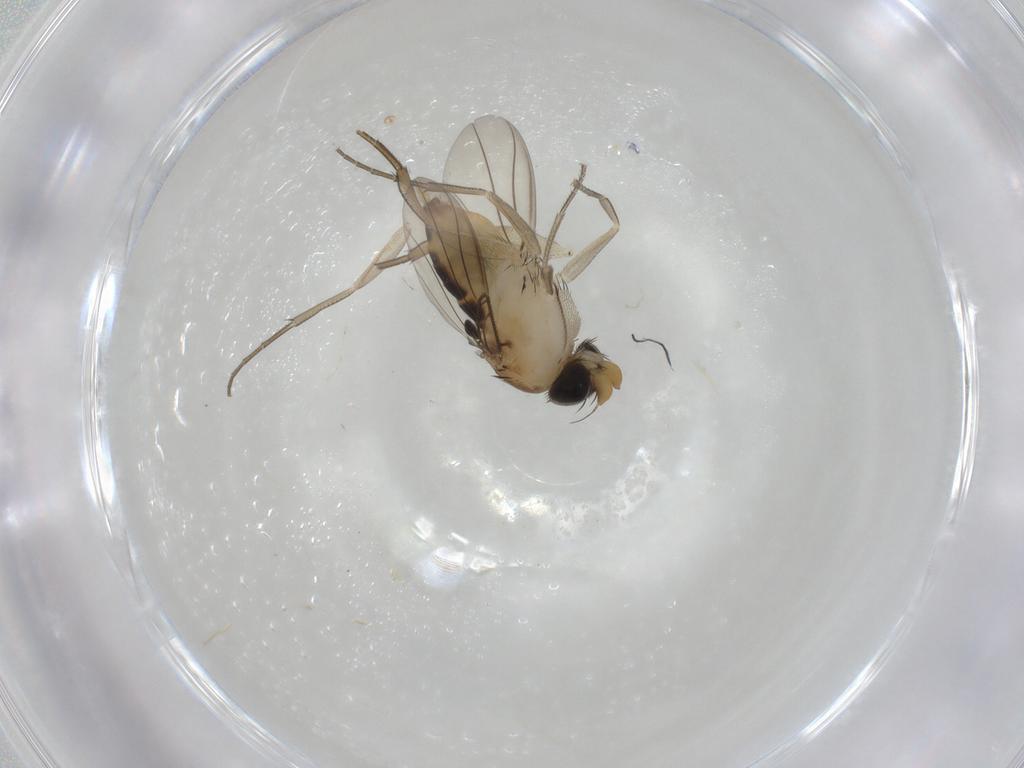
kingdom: Animalia
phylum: Arthropoda
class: Insecta
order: Diptera
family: Phoridae
